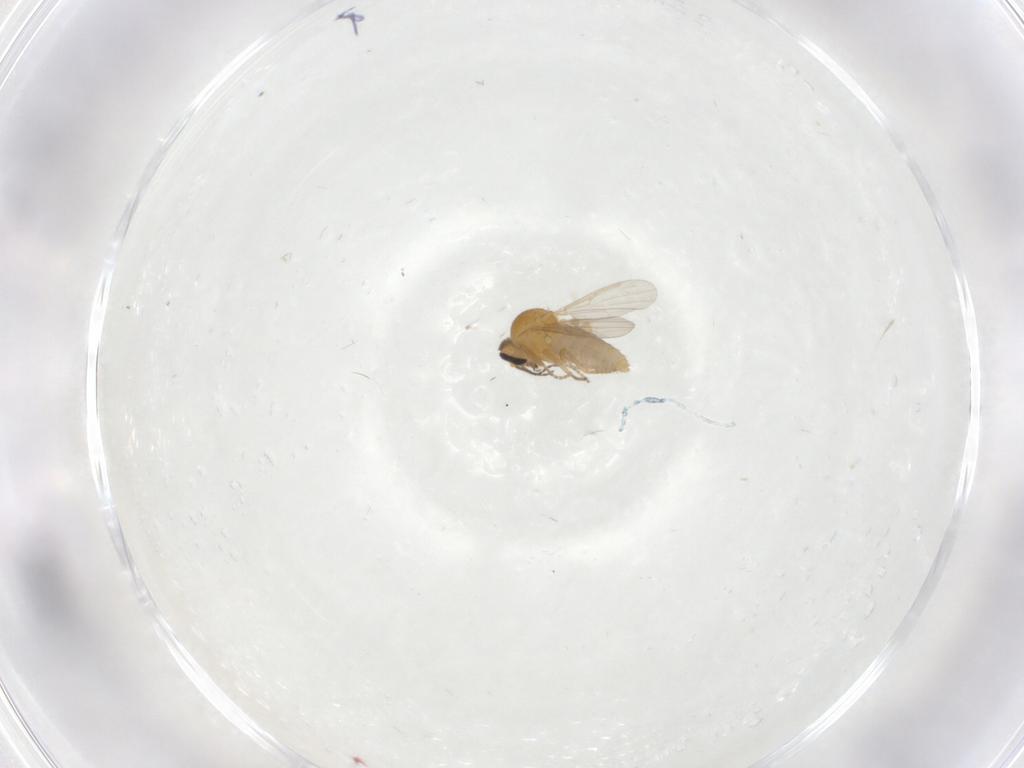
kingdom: Animalia
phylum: Arthropoda
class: Insecta
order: Diptera
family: Ceratopogonidae
